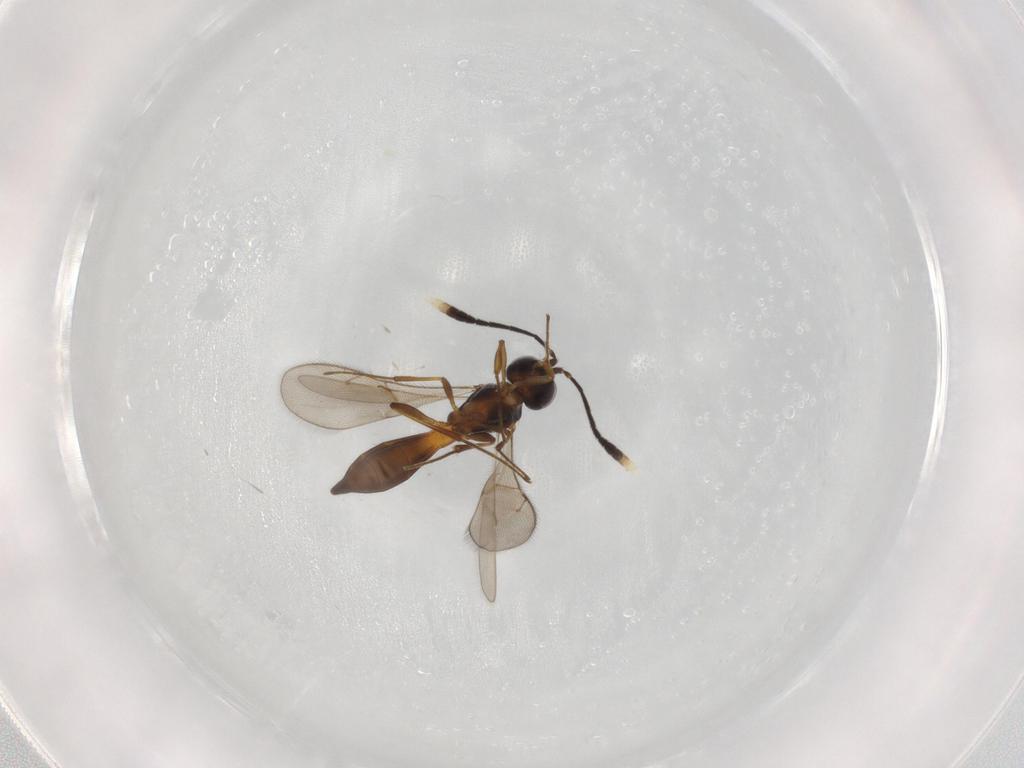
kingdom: Animalia
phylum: Arthropoda
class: Insecta
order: Hymenoptera
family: Scelionidae
